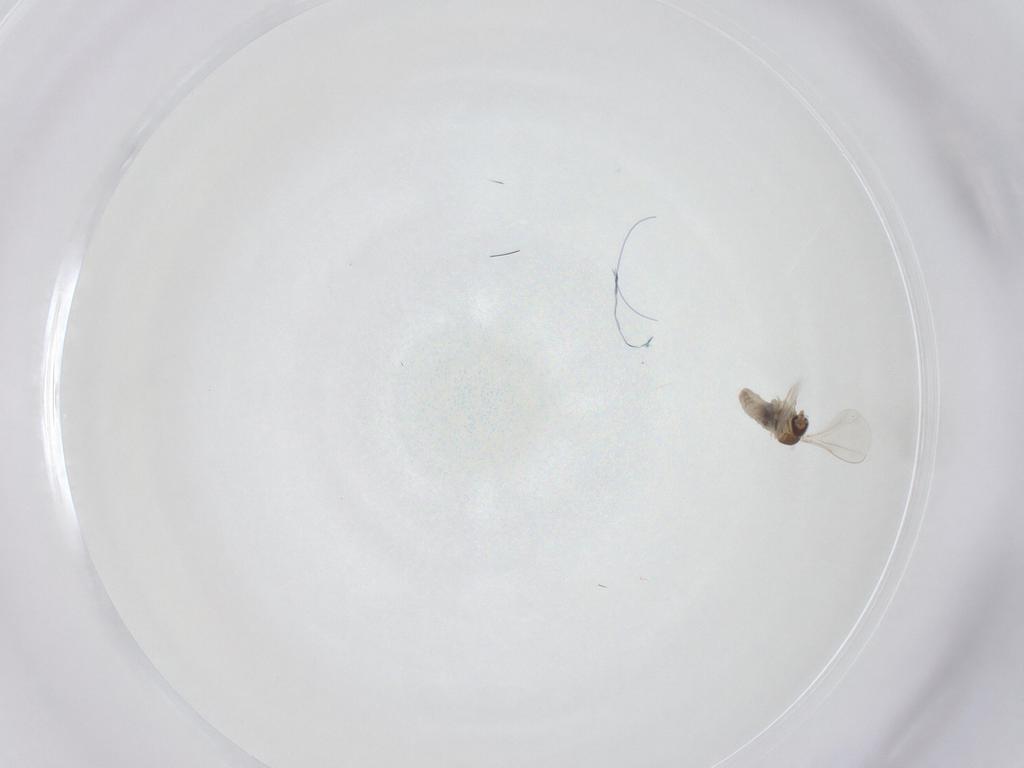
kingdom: Animalia
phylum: Arthropoda
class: Insecta
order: Diptera
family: Cecidomyiidae
